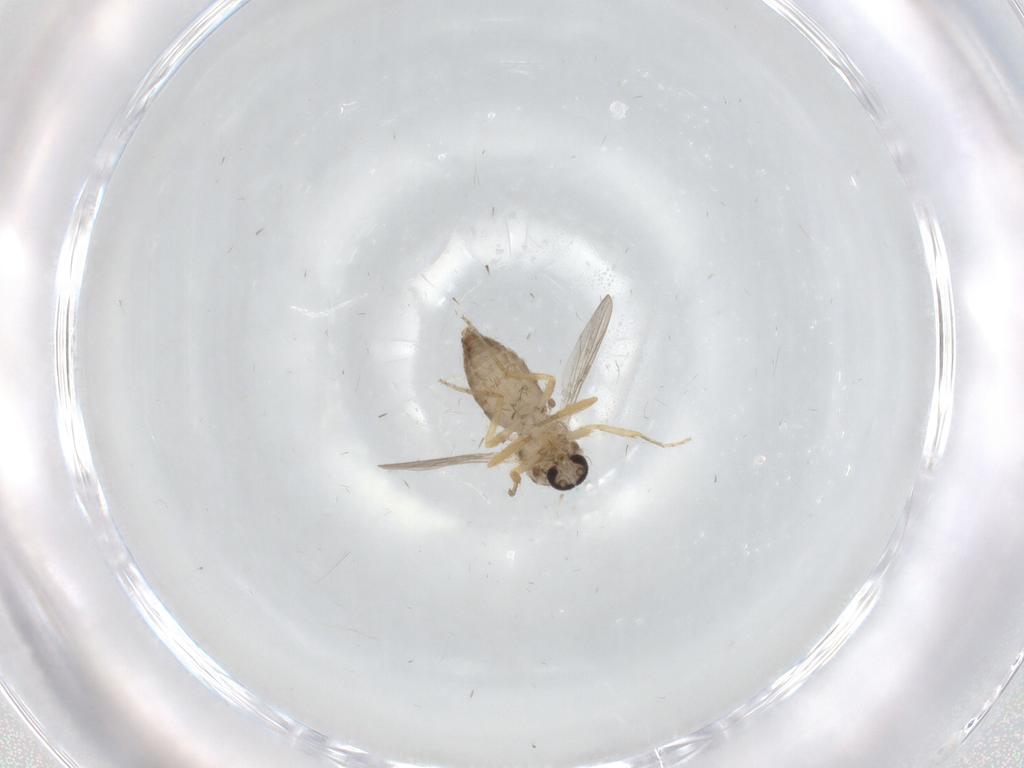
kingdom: Animalia
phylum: Arthropoda
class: Insecta
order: Diptera
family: Ceratopogonidae
